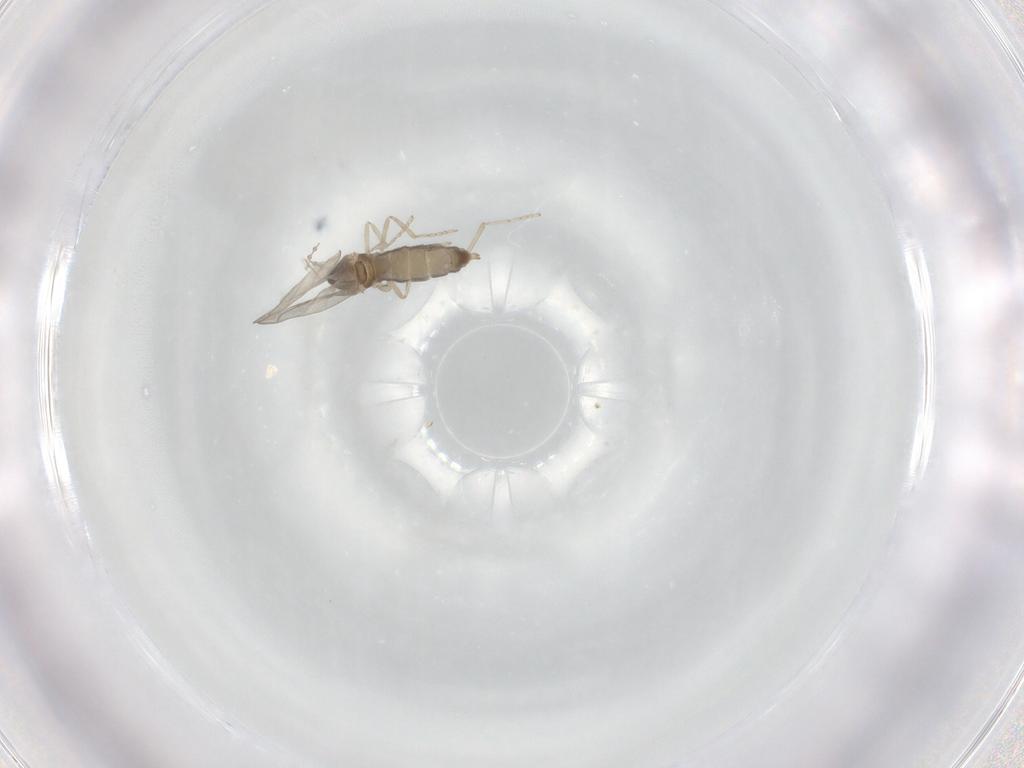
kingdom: Animalia
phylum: Arthropoda
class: Insecta
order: Diptera
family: Cecidomyiidae
